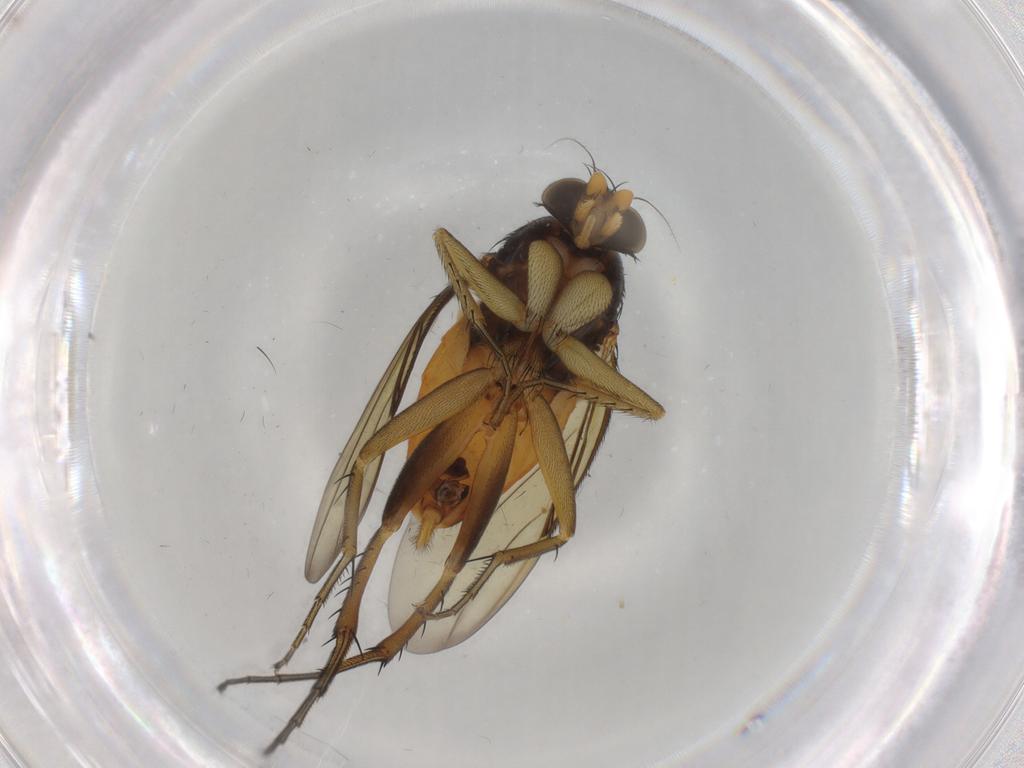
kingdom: Animalia
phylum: Arthropoda
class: Insecta
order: Diptera
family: Phoridae
